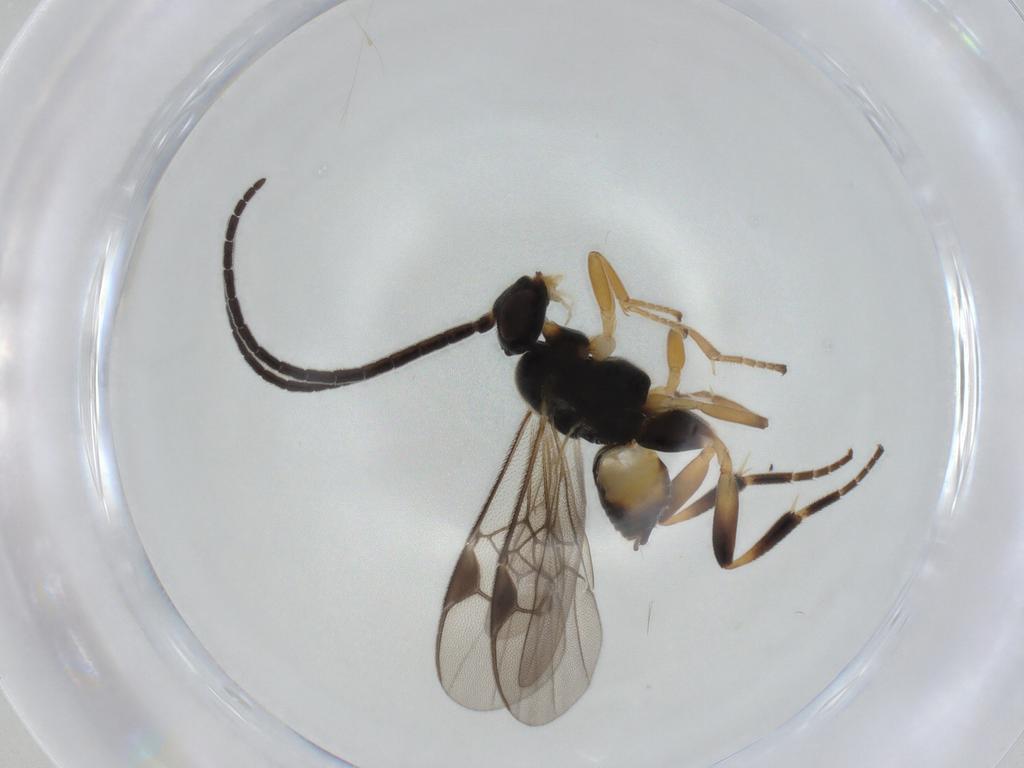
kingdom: Animalia
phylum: Arthropoda
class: Insecta
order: Hymenoptera
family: Braconidae
